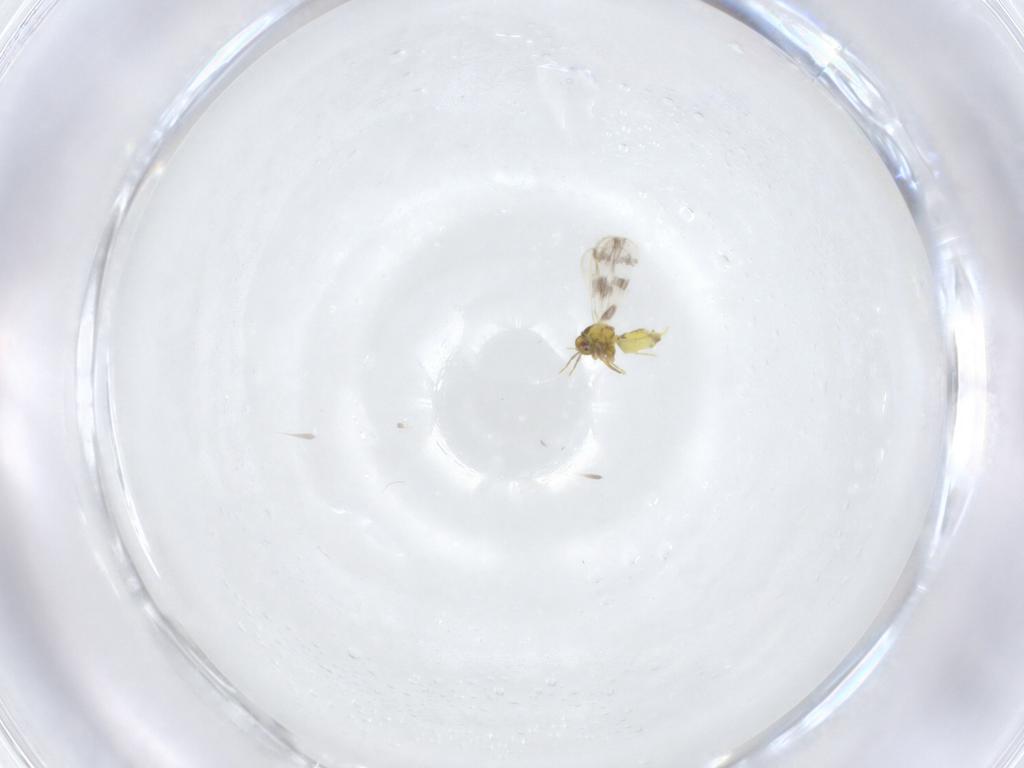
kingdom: Animalia
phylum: Arthropoda
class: Insecta
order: Hemiptera
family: Aleyrodidae
